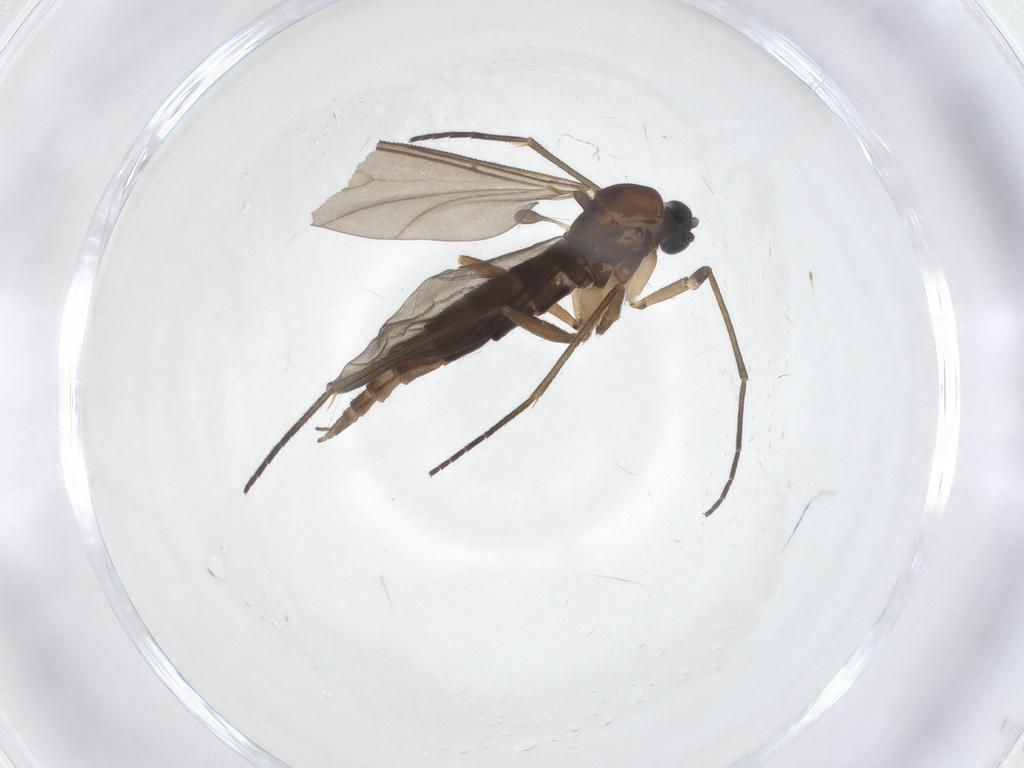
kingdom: Animalia
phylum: Arthropoda
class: Insecta
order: Diptera
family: Sciaridae
